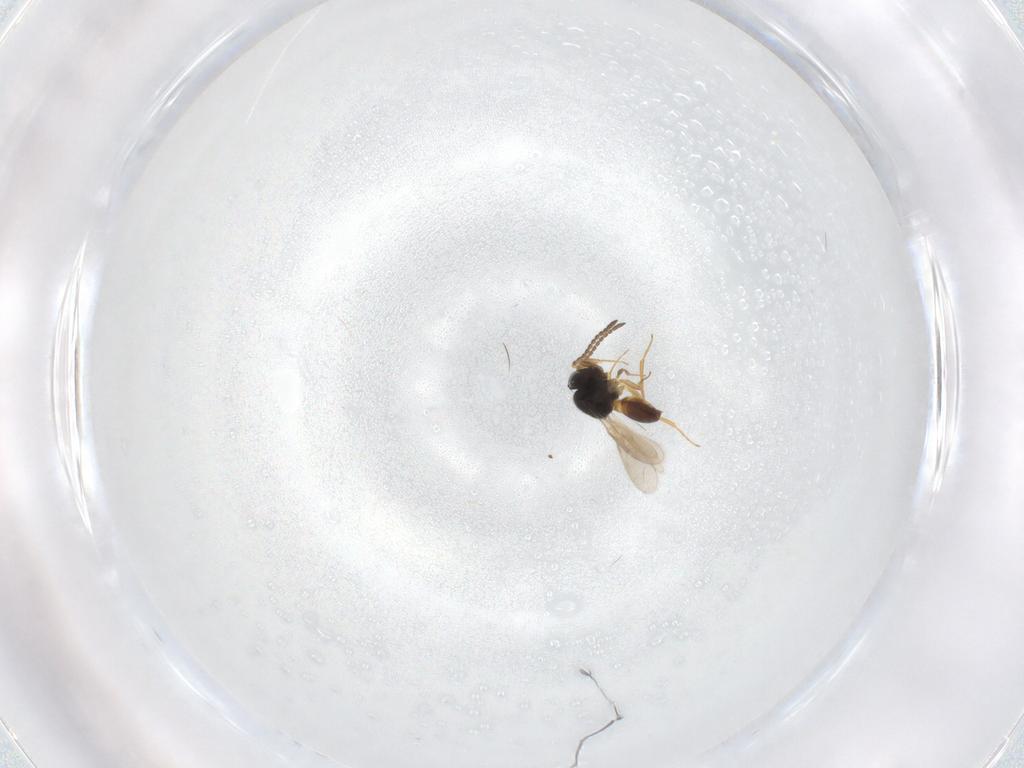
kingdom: Animalia
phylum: Arthropoda
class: Insecta
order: Hymenoptera
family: Scelionidae
